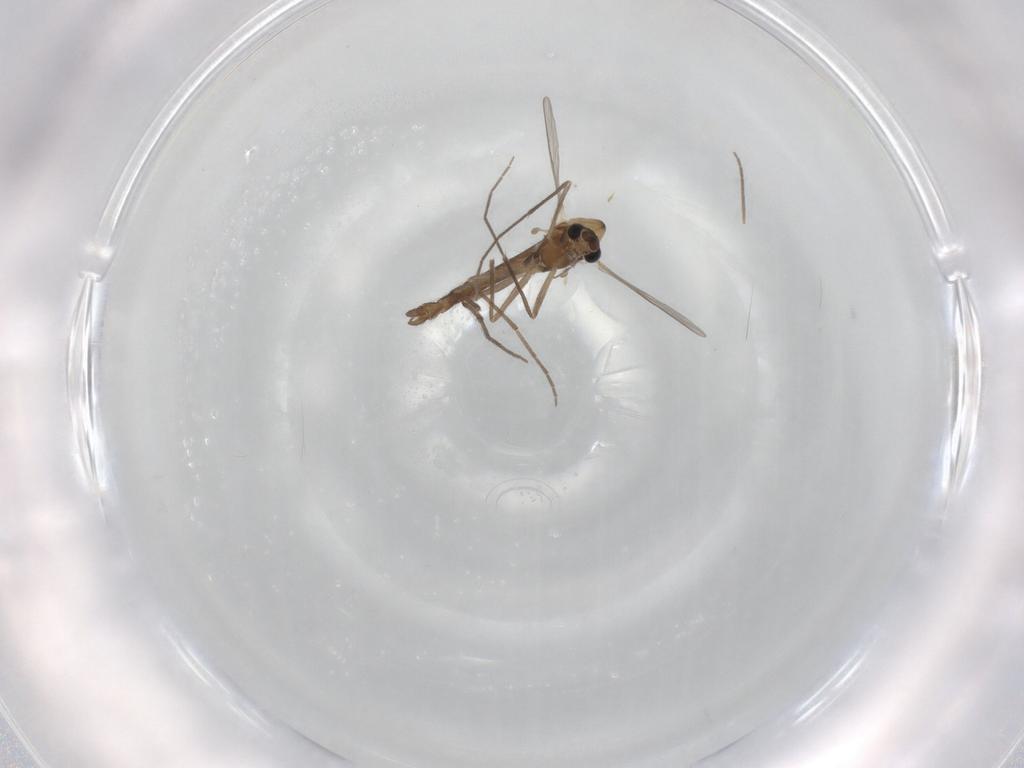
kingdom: Animalia
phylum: Arthropoda
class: Insecta
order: Diptera
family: Chironomidae
